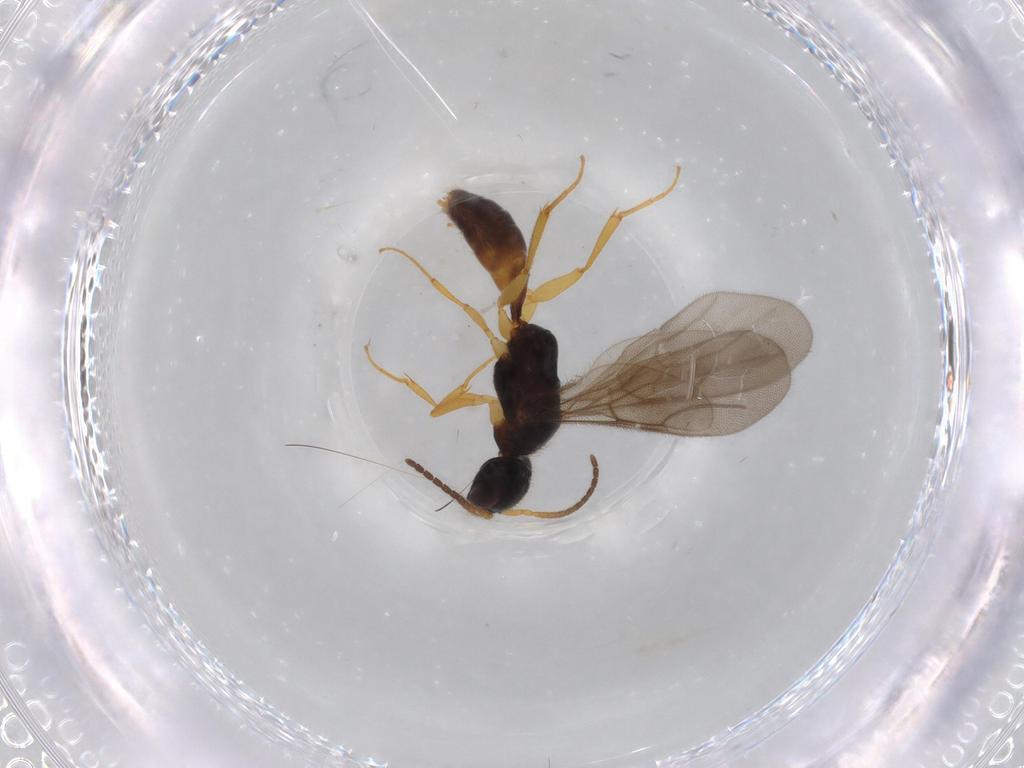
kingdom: Animalia
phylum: Arthropoda
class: Insecta
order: Hymenoptera
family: Bethylidae
